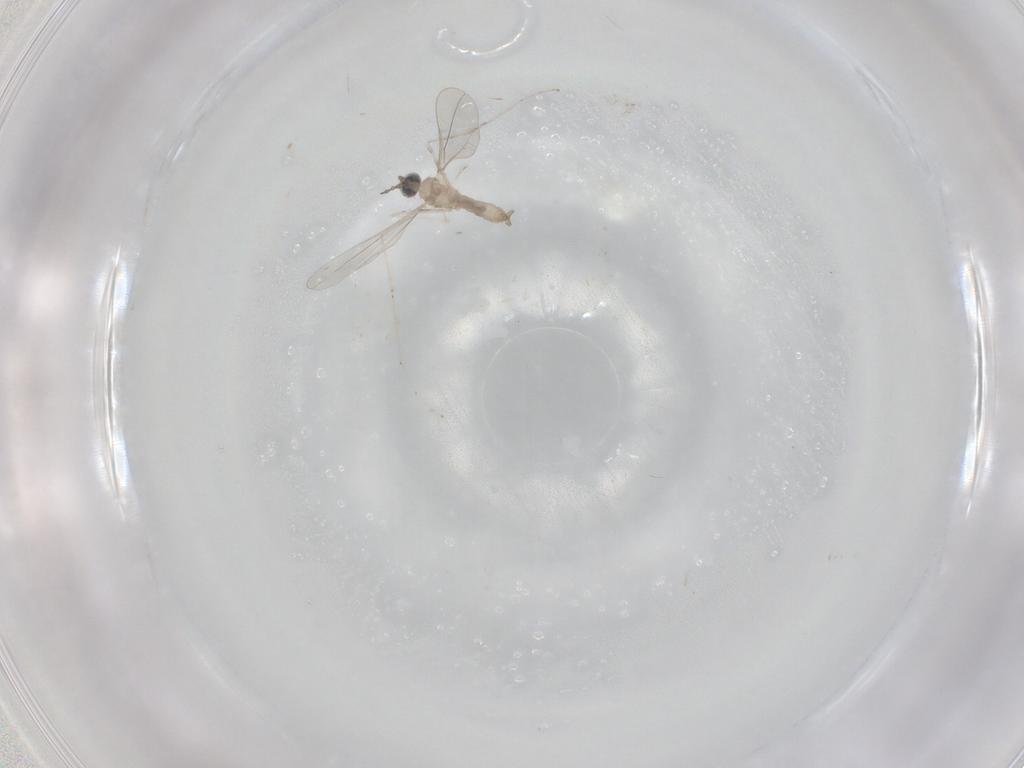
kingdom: Animalia
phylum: Arthropoda
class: Insecta
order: Diptera
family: Cecidomyiidae
